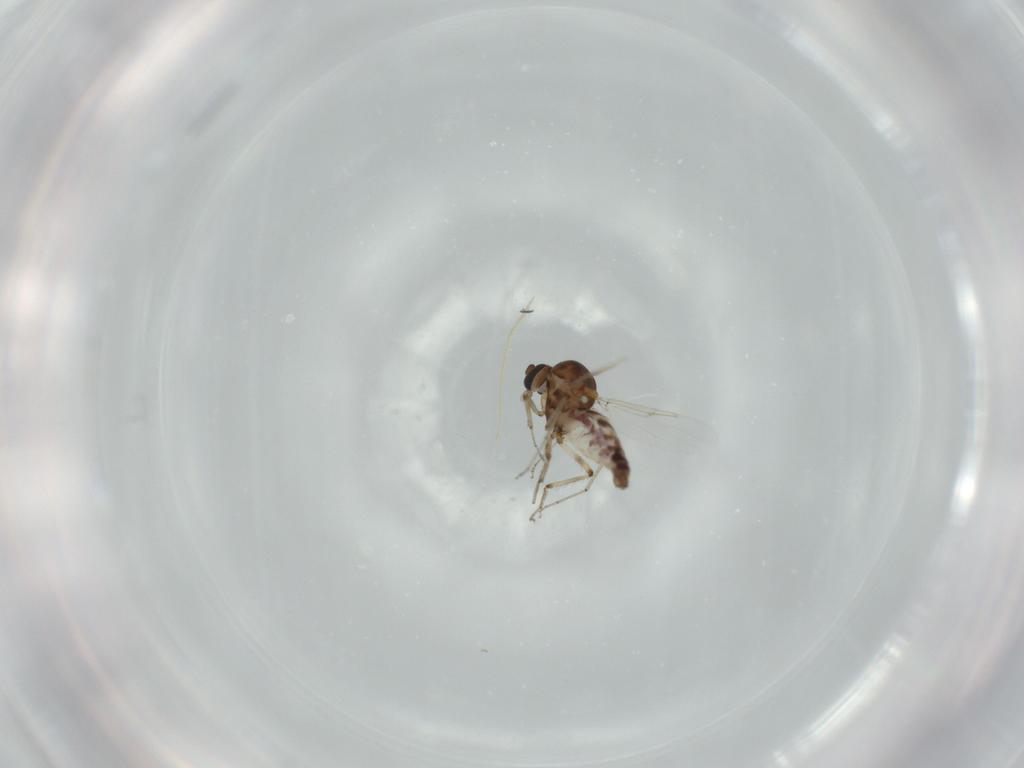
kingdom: Animalia
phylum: Arthropoda
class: Insecta
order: Diptera
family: Ceratopogonidae
